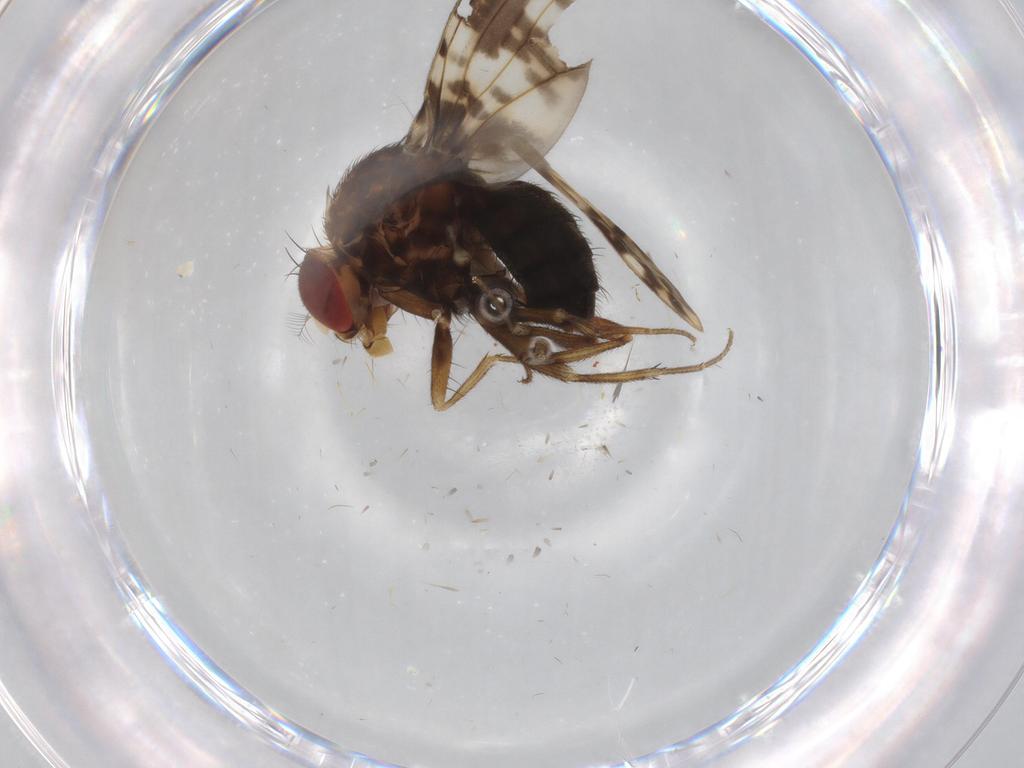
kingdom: Animalia
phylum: Arthropoda
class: Insecta
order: Diptera
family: Sciaridae
